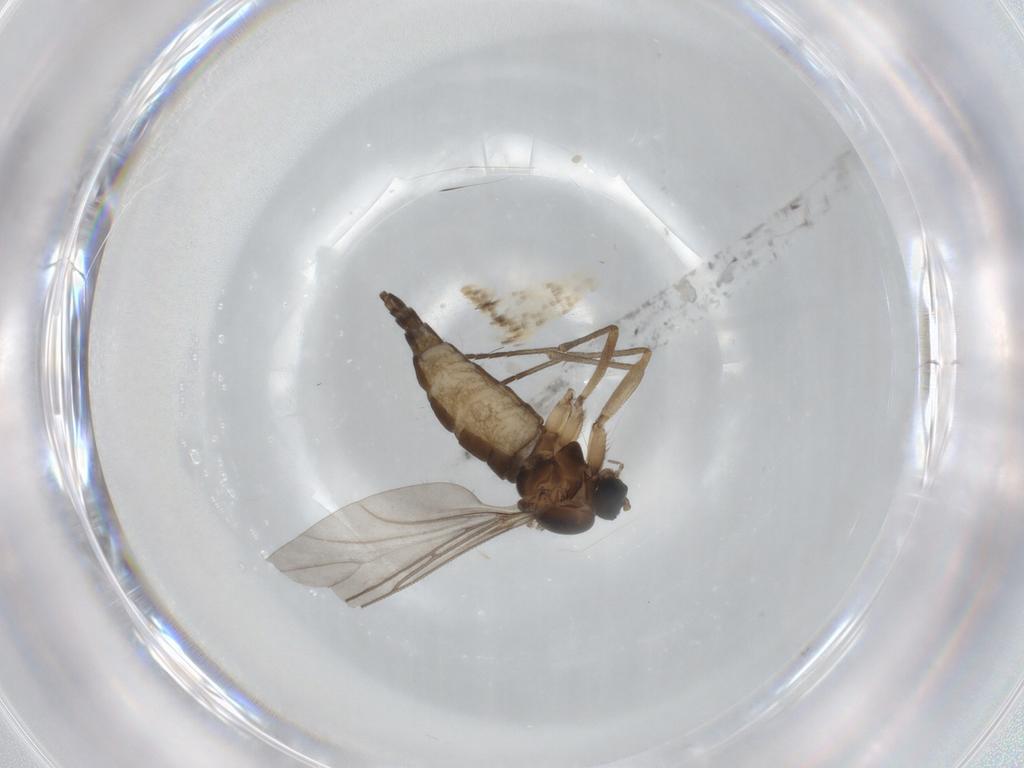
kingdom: Animalia
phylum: Arthropoda
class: Insecta
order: Diptera
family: Sciaridae
